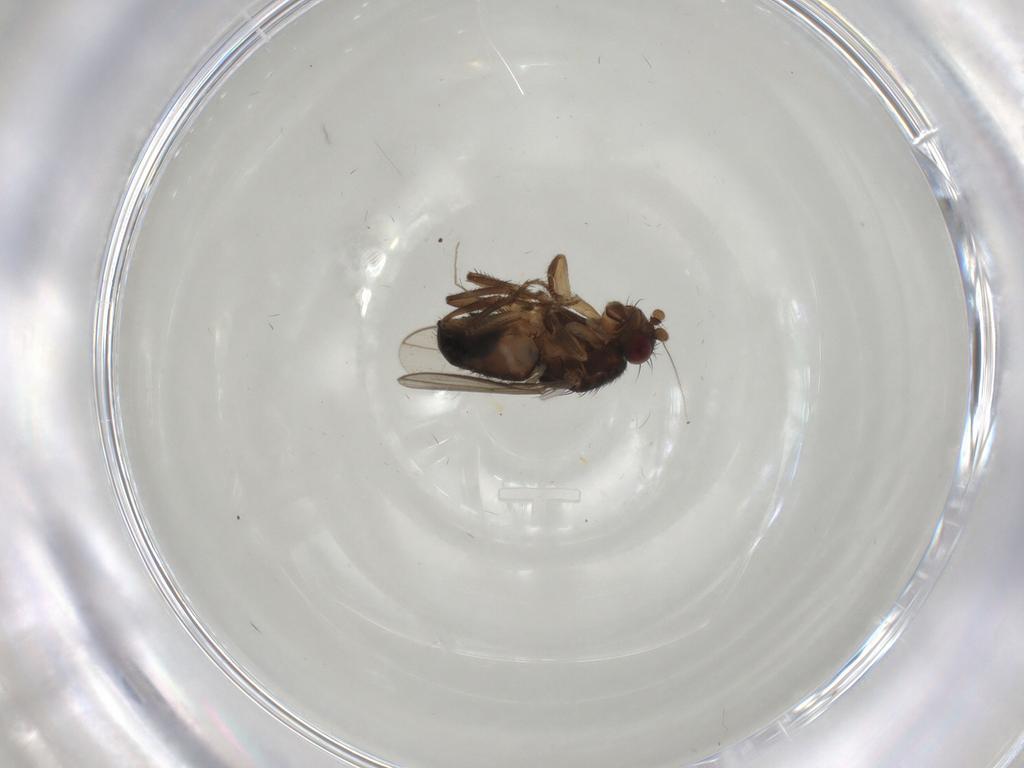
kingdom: Animalia
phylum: Arthropoda
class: Insecta
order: Diptera
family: Sphaeroceridae
